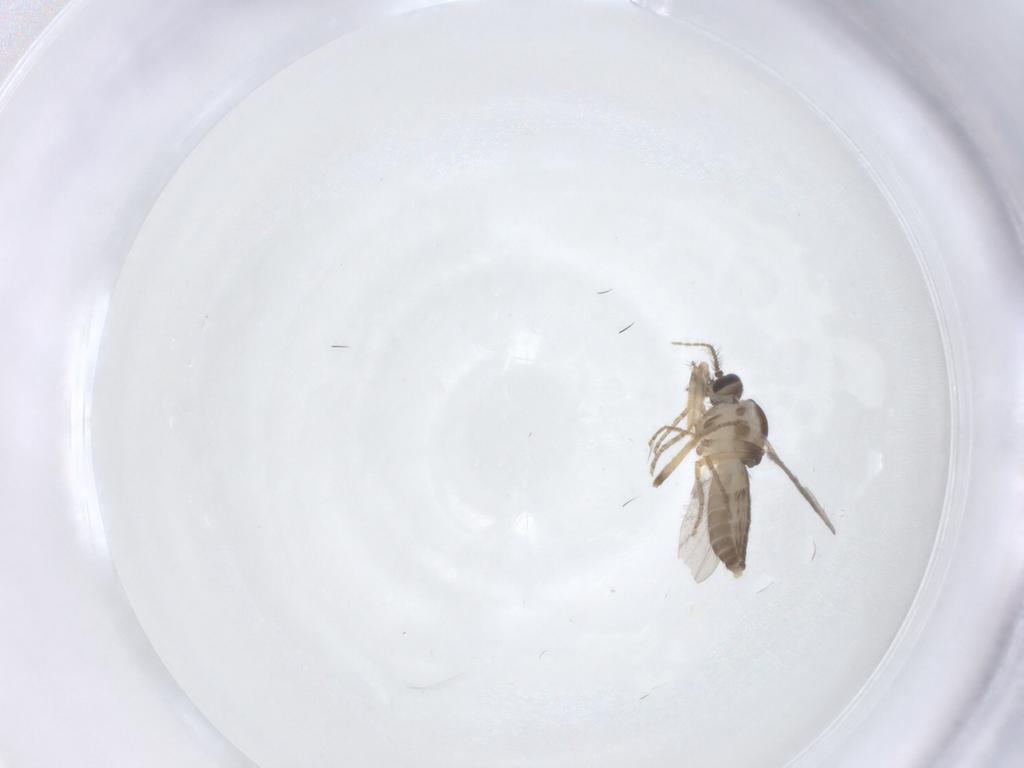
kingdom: Animalia
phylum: Arthropoda
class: Insecta
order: Diptera
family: Ceratopogonidae
